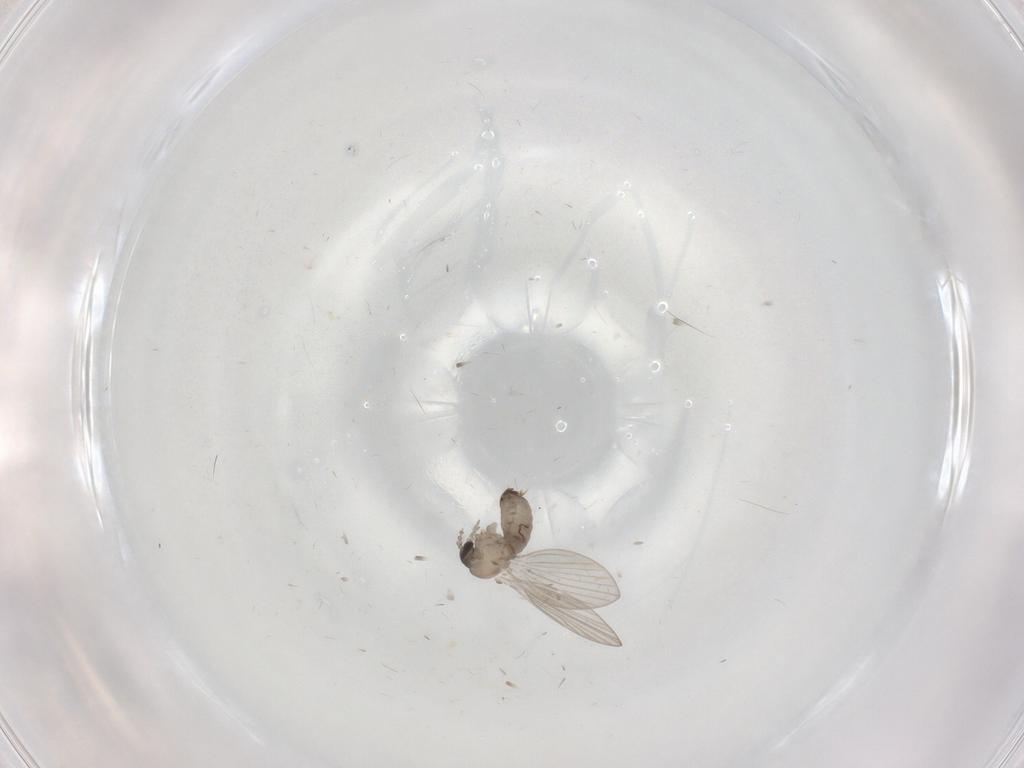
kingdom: Animalia
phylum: Arthropoda
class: Insecta
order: Diptera
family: Psychodidae
